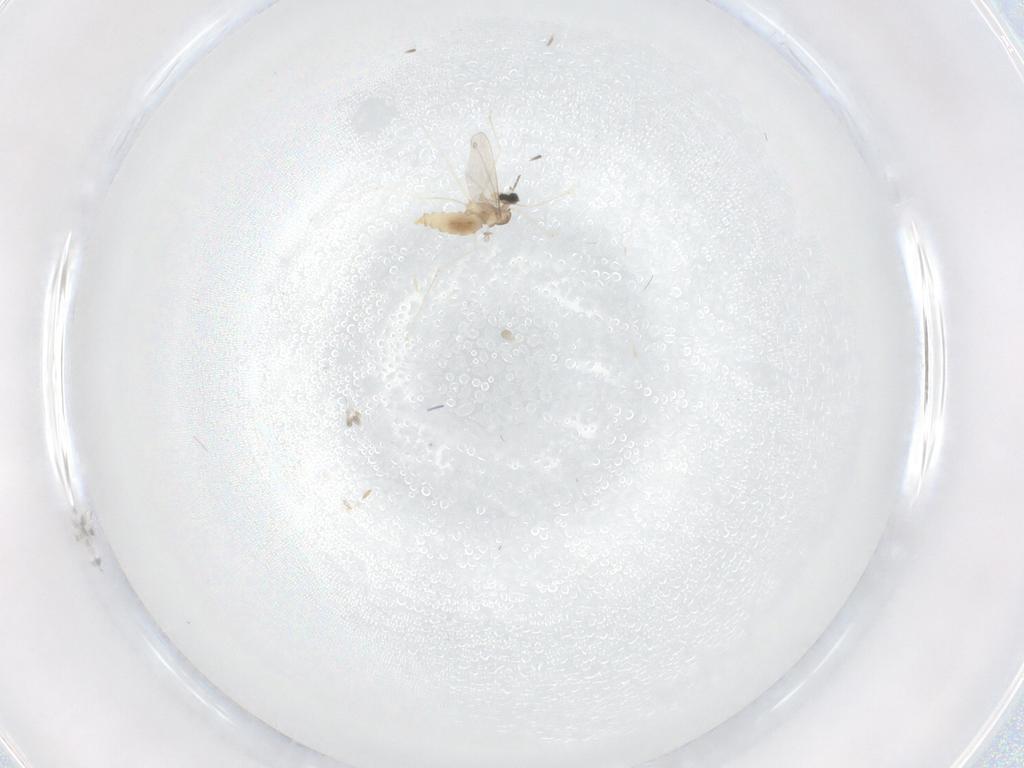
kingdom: Animalia
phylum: Arthropoda
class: Insecta
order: Diptera
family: Cecidomyiidae
